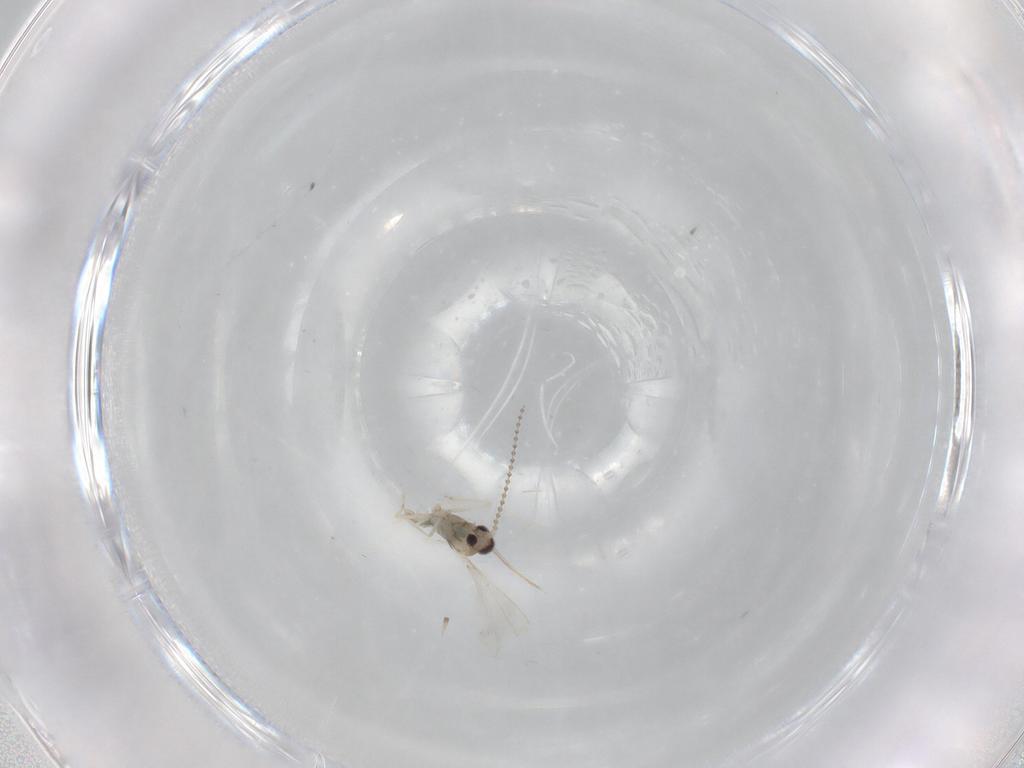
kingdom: Animalia
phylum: Arthropoda
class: Insecta
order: Diptera
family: Cecidomyiidae
